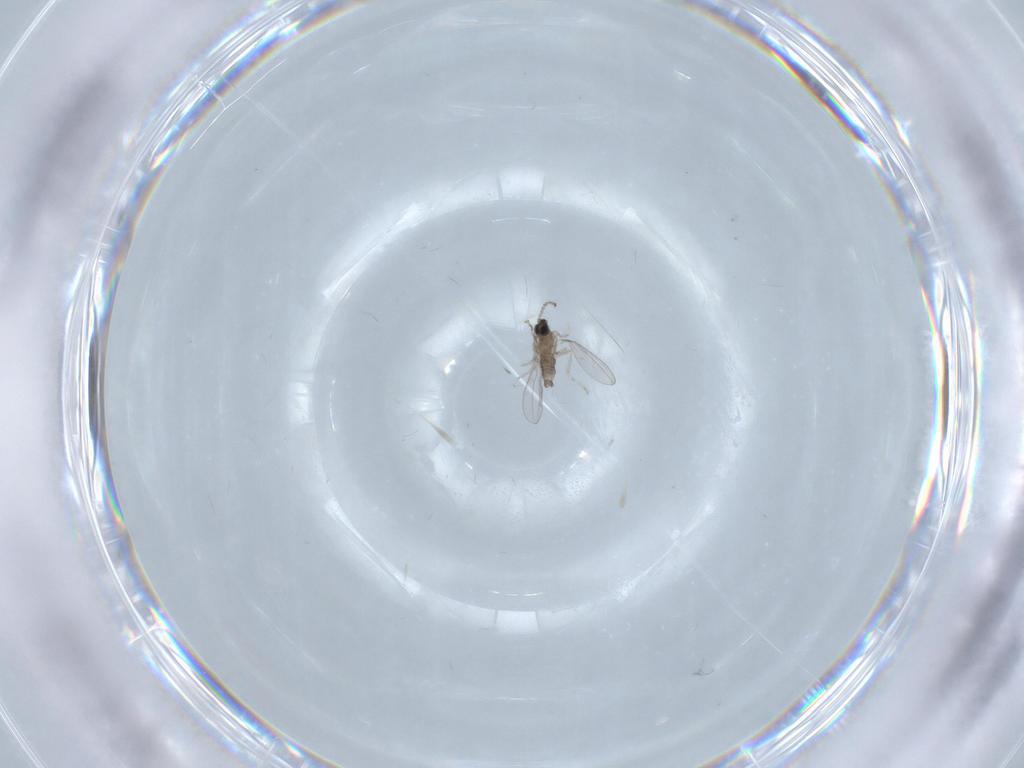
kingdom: Animalia
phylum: Arthropoda
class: Insecta
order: Diptera
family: Cecidomyiidae
